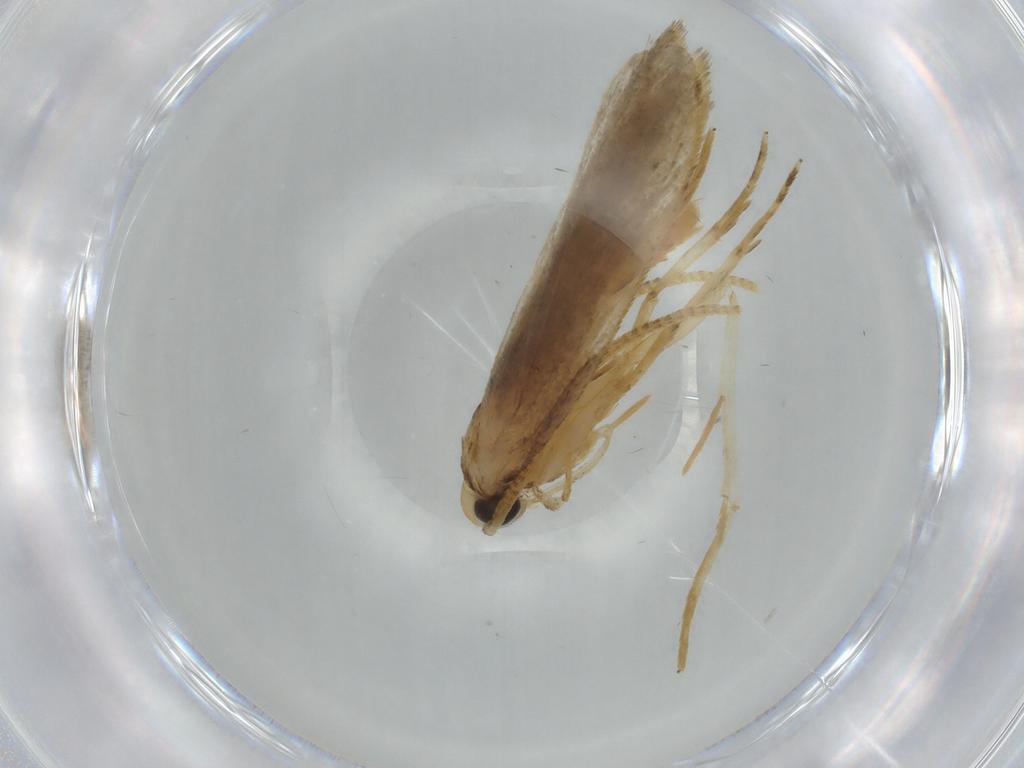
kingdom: Animalia
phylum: Arthropoda
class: Insecta
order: Lepidoptera
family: Autostichidae
